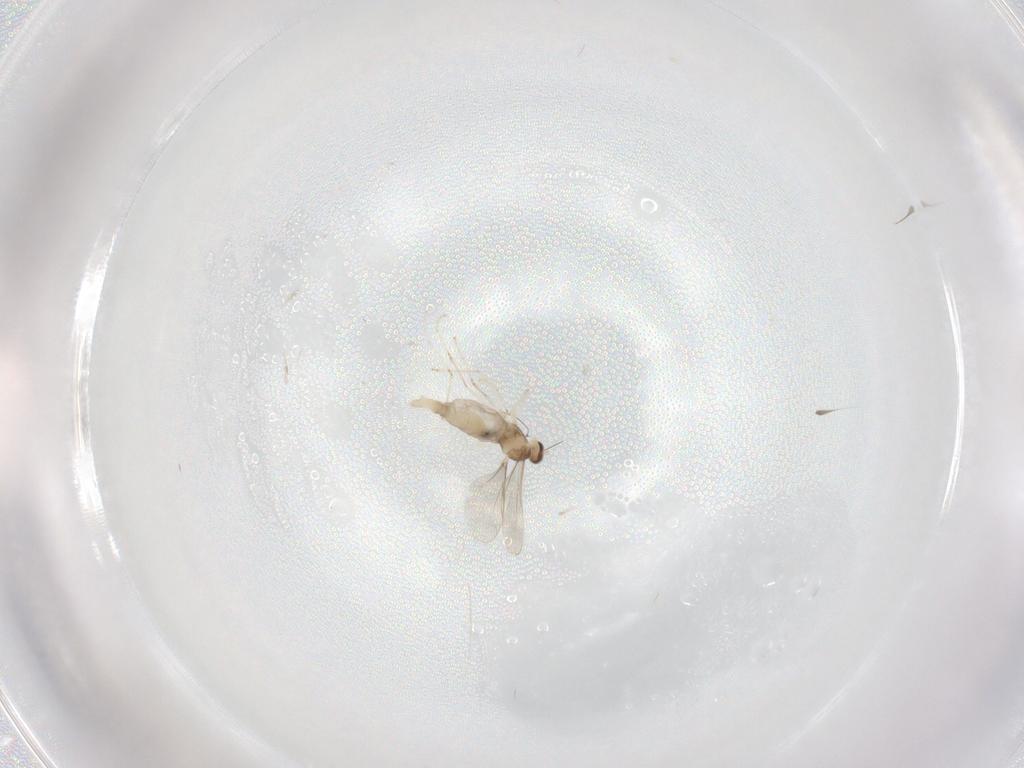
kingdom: Animalia
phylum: Arthropoda
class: Insecta
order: Diptera
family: Cecidomyiidae
